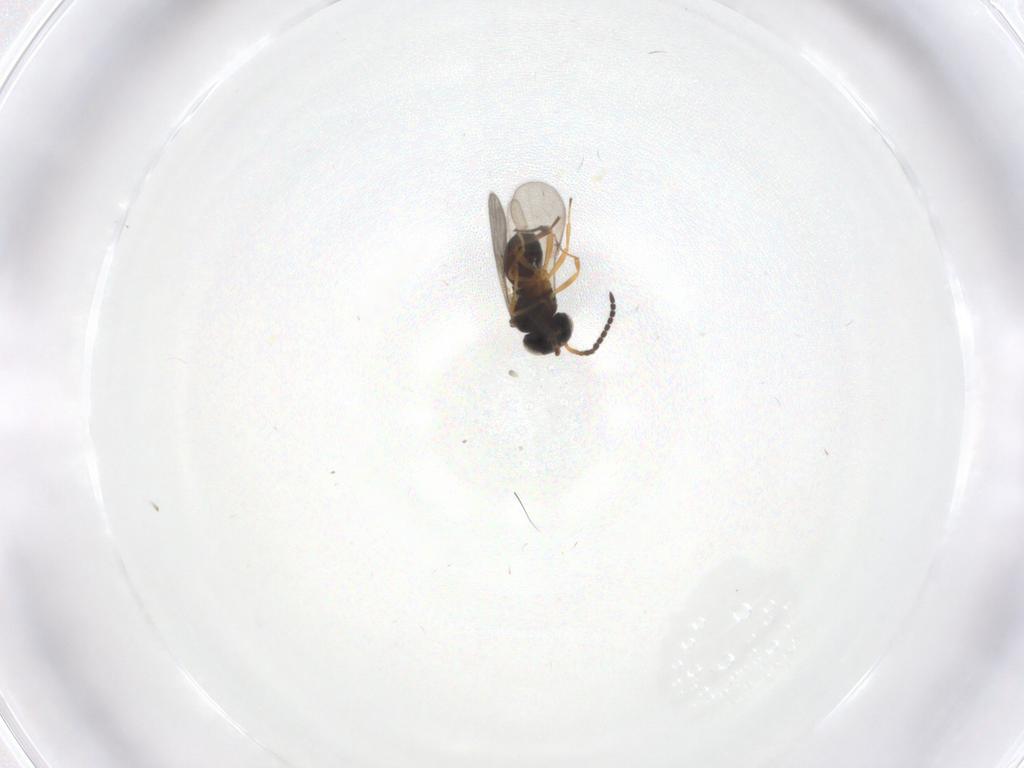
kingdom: Animalia
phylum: Arthropoda
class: Insecta
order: Hymenoptera
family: Scelionidae
